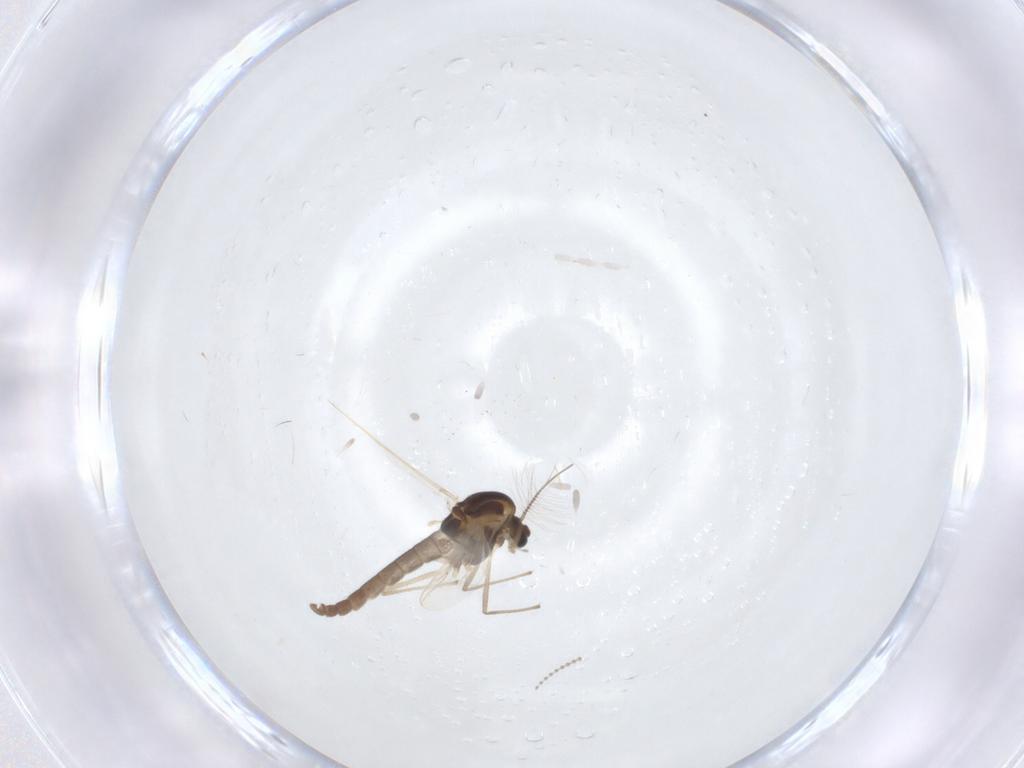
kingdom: Animalia
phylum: Arthropoda
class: Insecta
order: Diptera
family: Chironomidae
